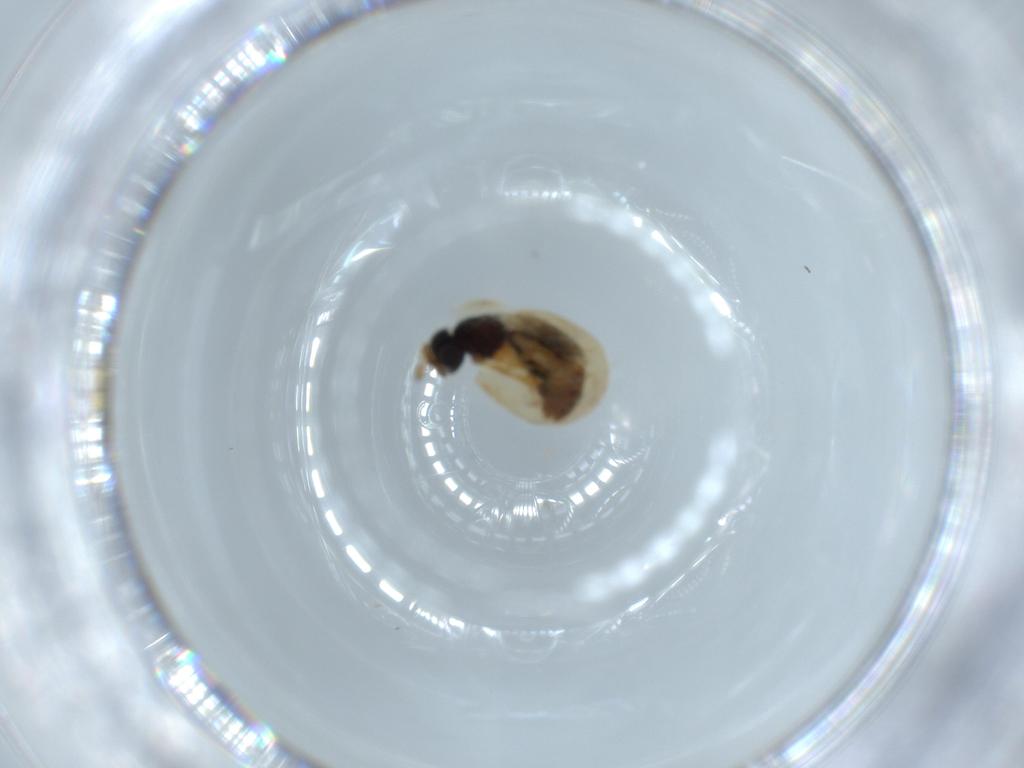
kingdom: Animalia
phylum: Arthropoda
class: Insecta
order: Hymenoptera
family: Scelionidae
